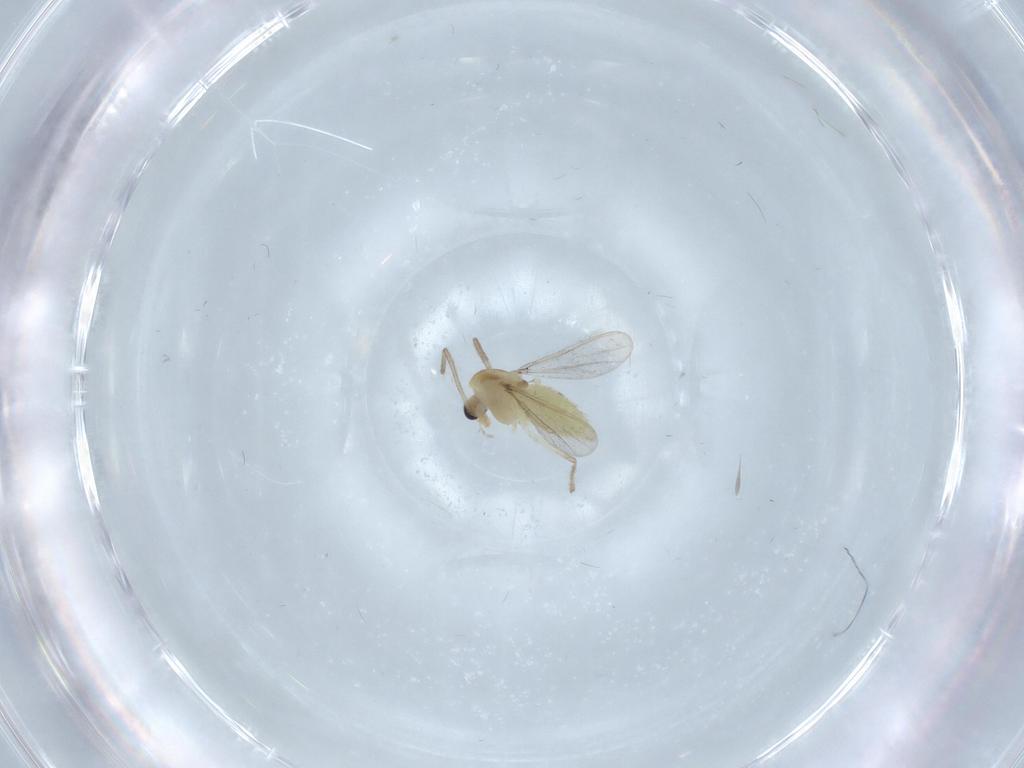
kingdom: Animalia
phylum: Arthropoda
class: Insecta
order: Diptera
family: Chironomidae
